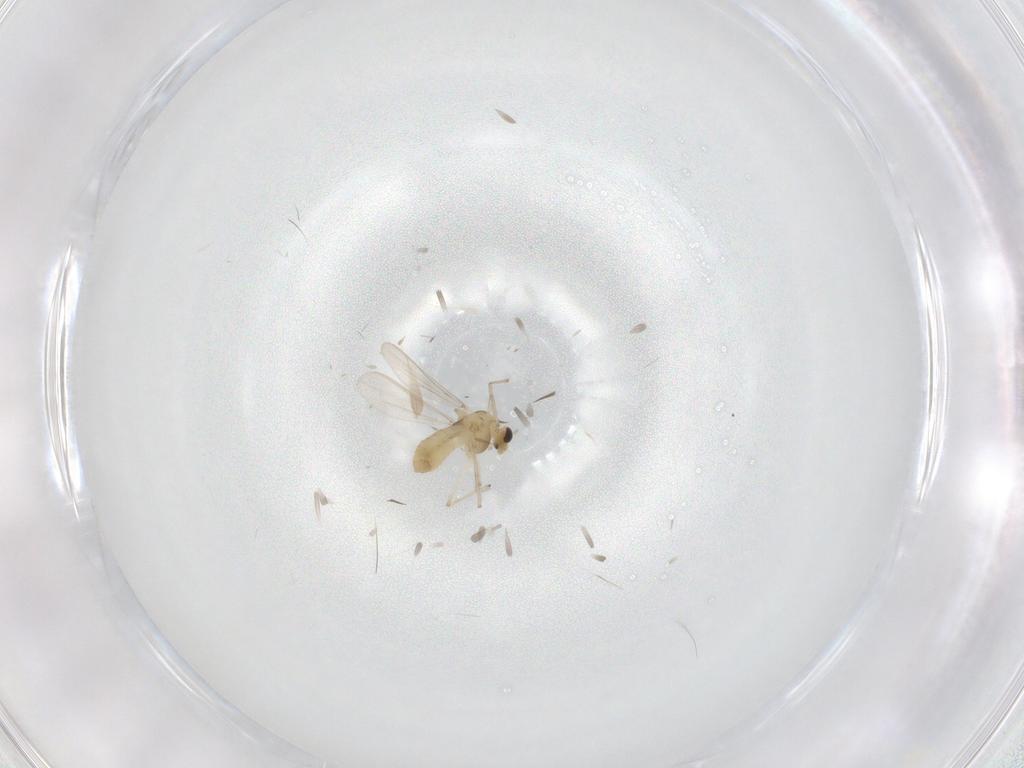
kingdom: Animalia
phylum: Arthropoda
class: Insecta
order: Diptera
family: Chironomidae
